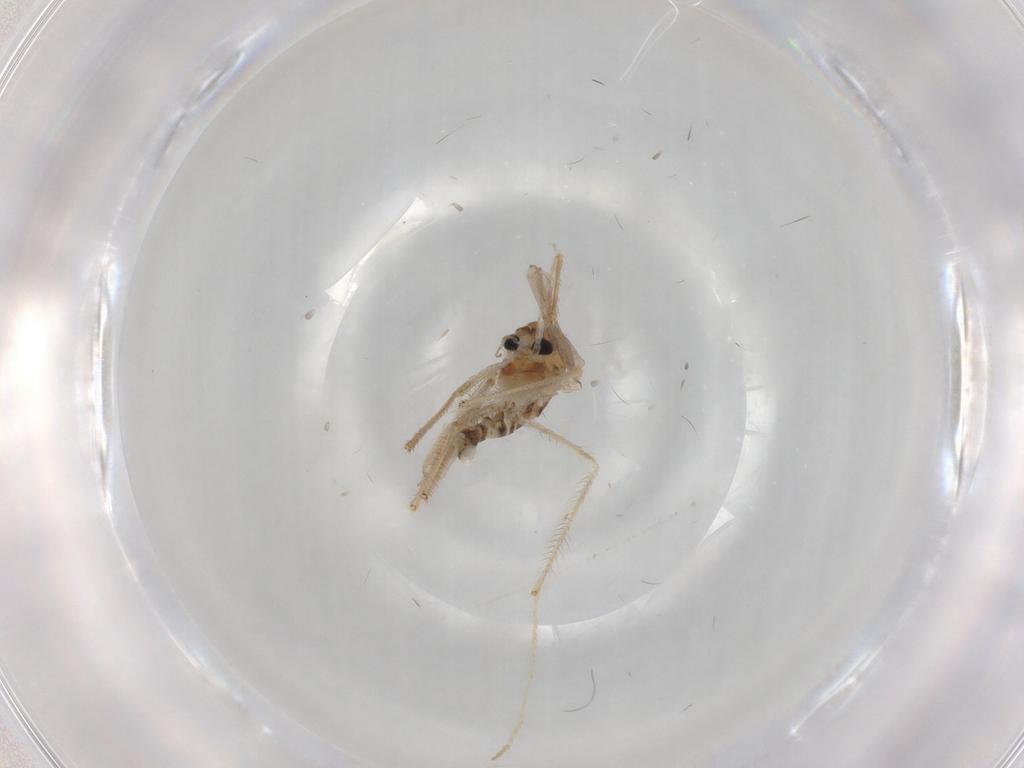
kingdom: Animalia
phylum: Arthropoda
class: Insecta
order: Diptera
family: Chironomidae
